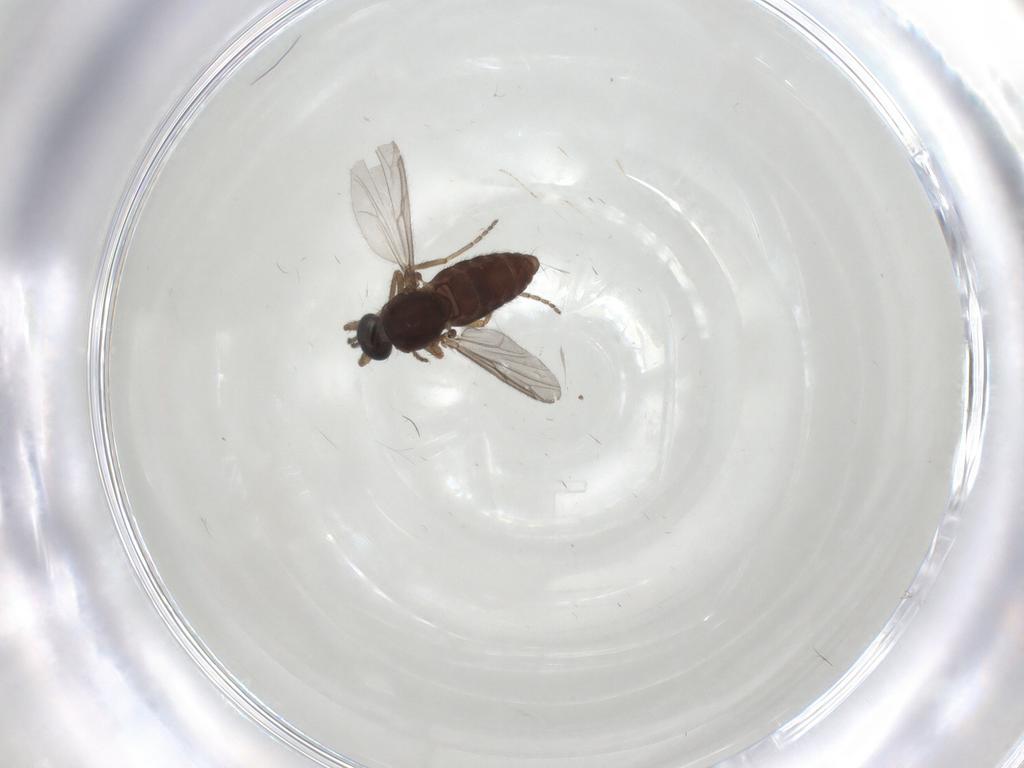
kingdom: Animalia
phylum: Arthropoda
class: Insecta
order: Diptera
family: Ceratopogonidae
